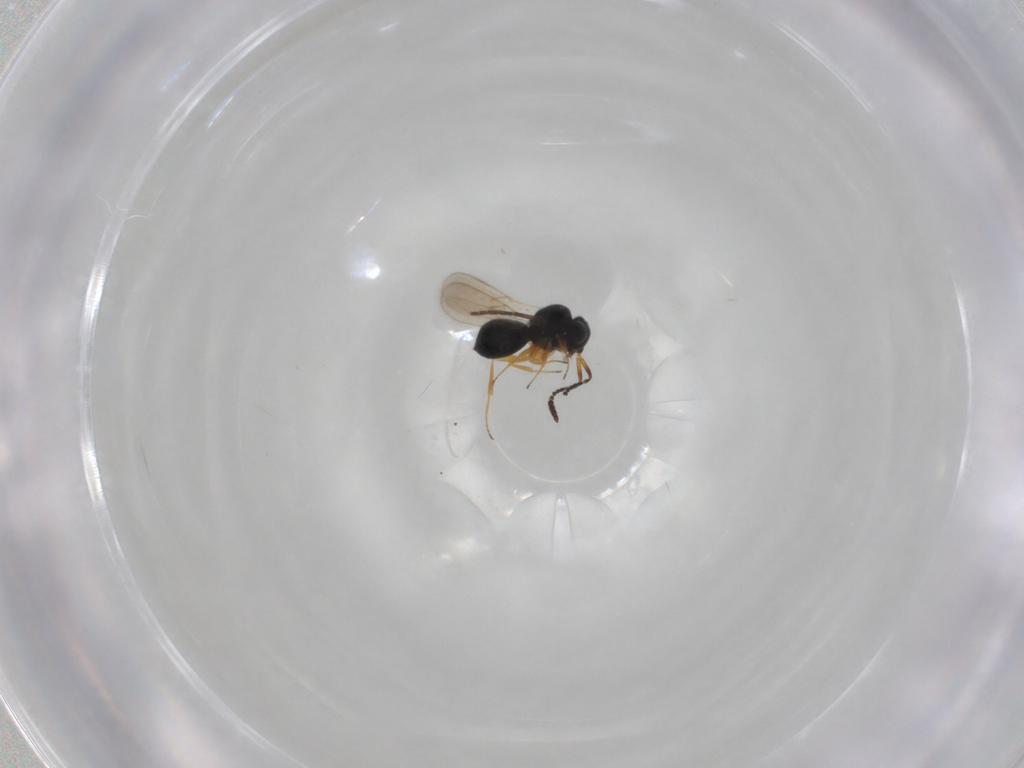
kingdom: Animalia
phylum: Arthropoda
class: Insecta
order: Hymenoptera
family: Scelionidae
